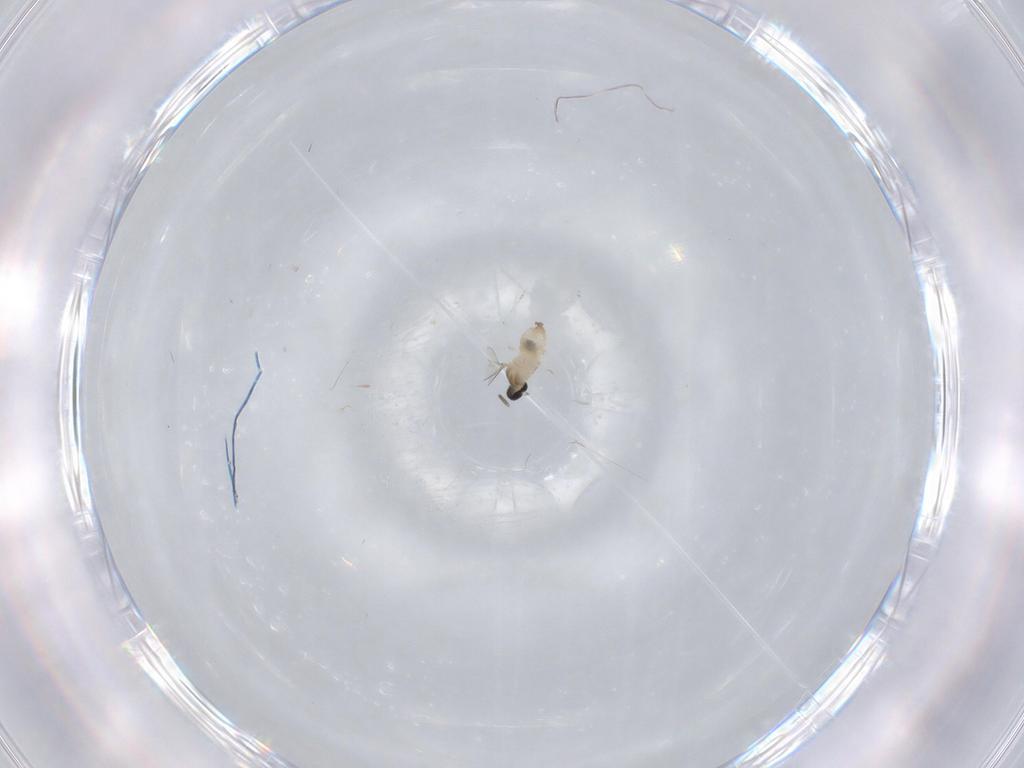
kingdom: Animalia
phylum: Arthropoda
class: Insecta
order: Diptera
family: Cecidomyiidae
